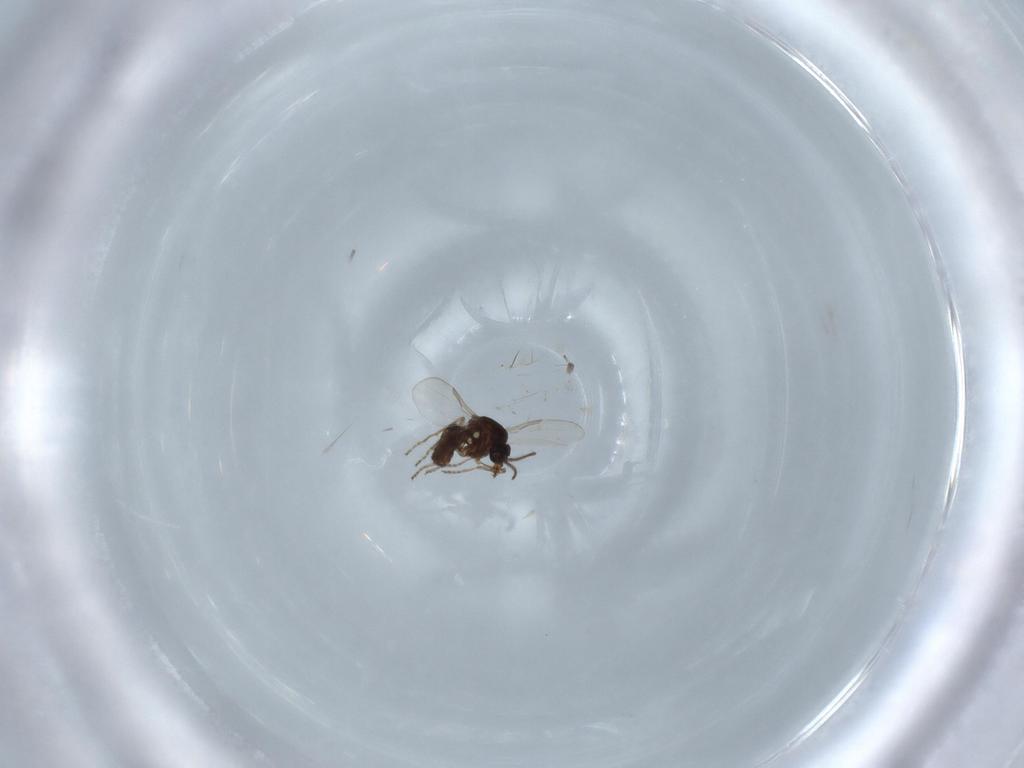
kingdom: Animalia
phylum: Arthropoda
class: Insecta
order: Diptera
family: Ceratopogonidae
